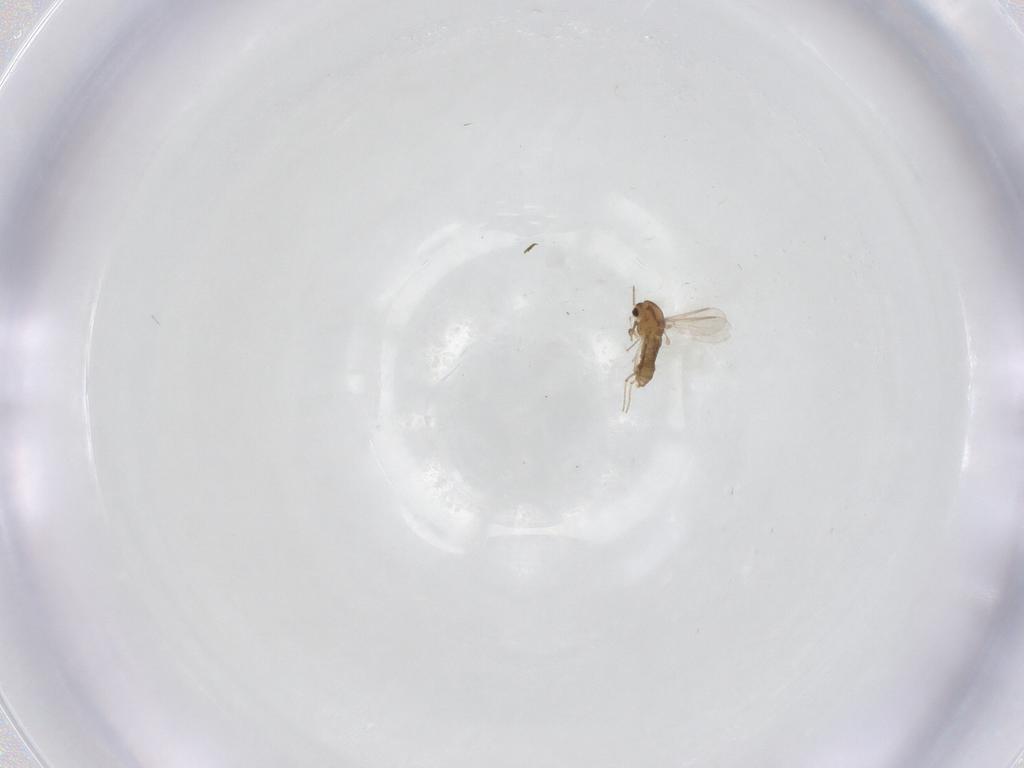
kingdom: Animalia
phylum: Arthropoda
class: Insecta
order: Diptera
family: Chironomidae
